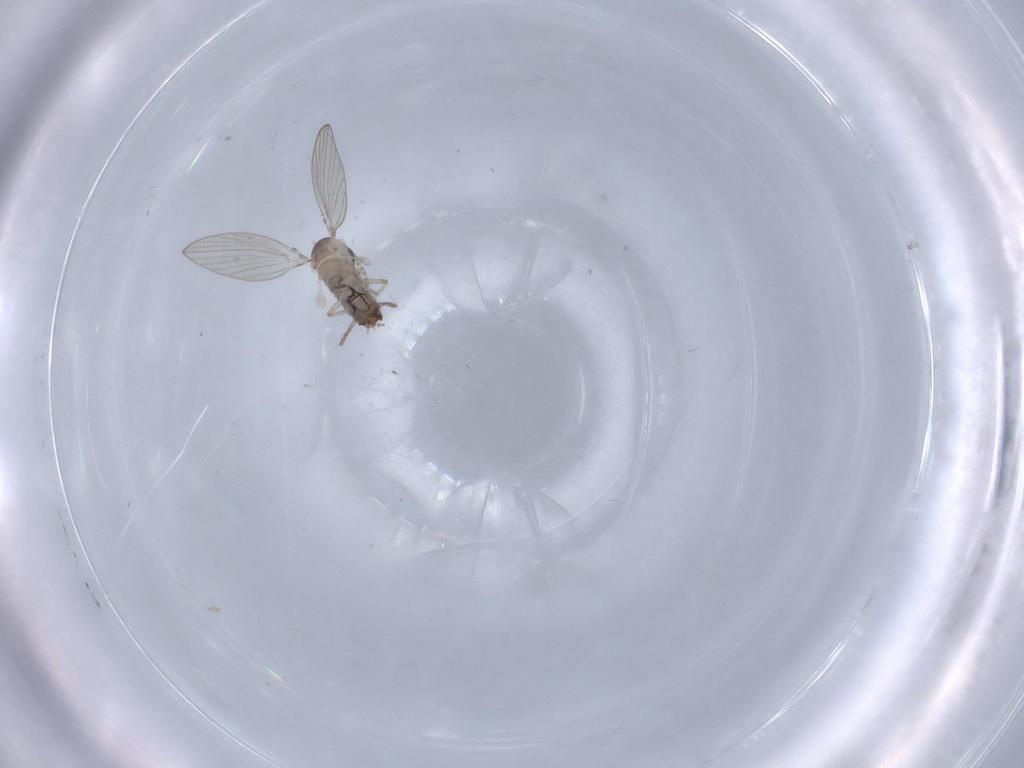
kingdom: Animalia
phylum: Arthropoda
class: Insecta
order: Diptera
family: Psychodidae
